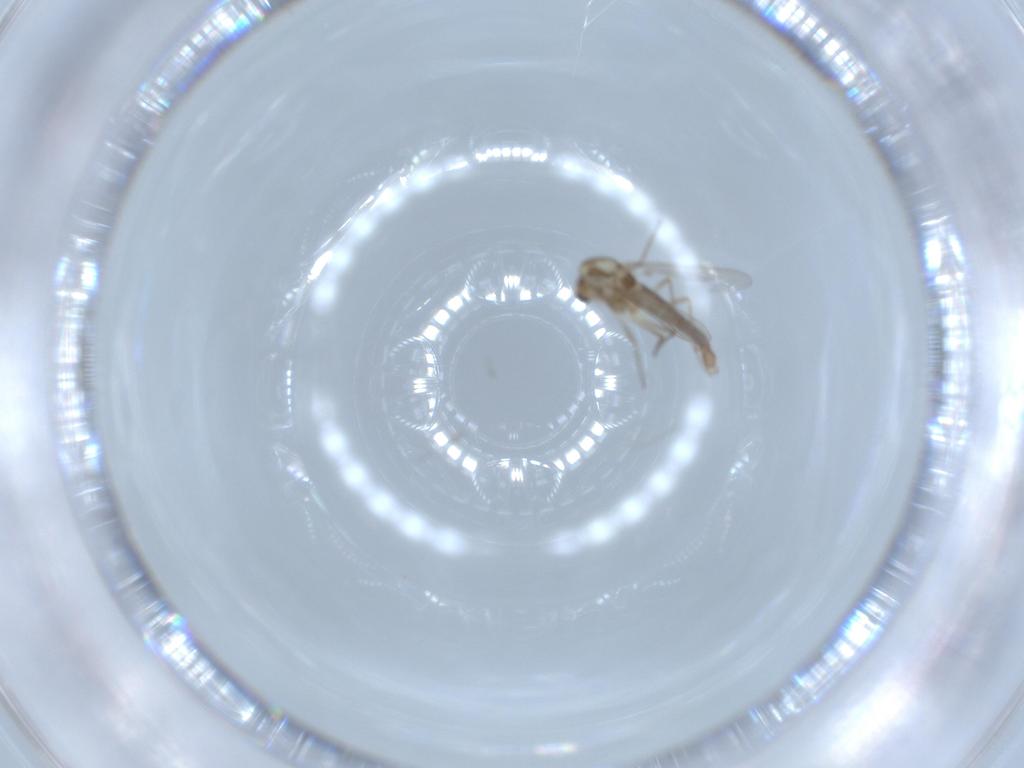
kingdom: Animalia
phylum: Arthropoda
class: Insecta
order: Diptera
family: Chironomidae
